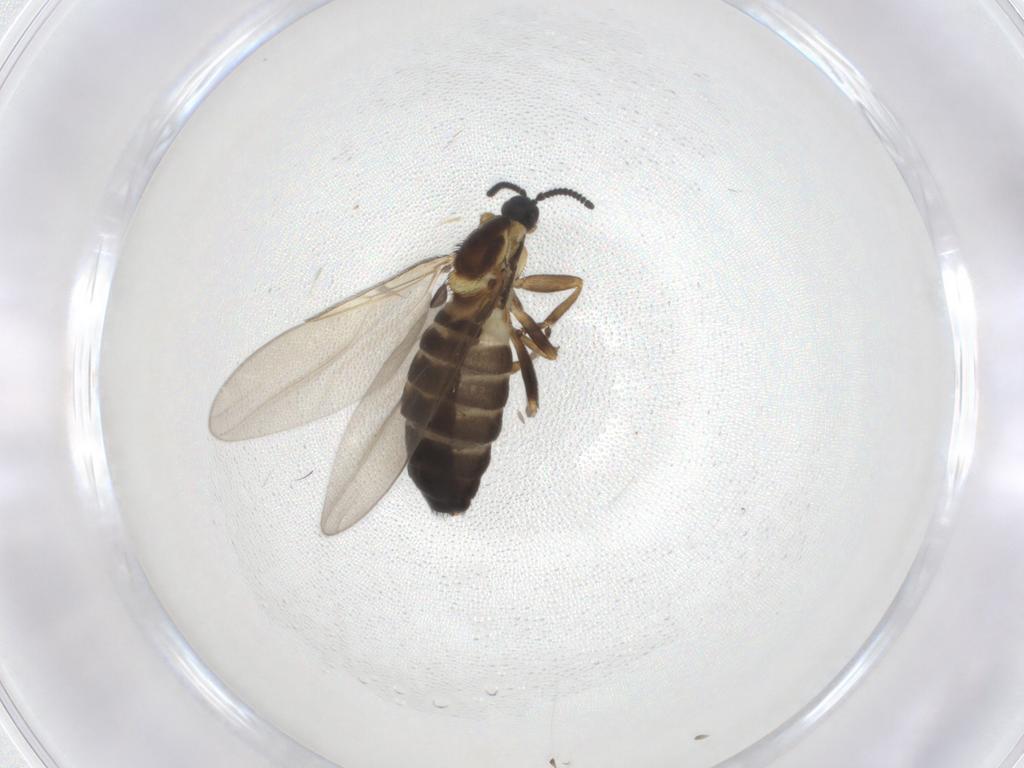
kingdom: Animalia
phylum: Arthropoda
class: Insecta
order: Diptera
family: Scatopsidae
